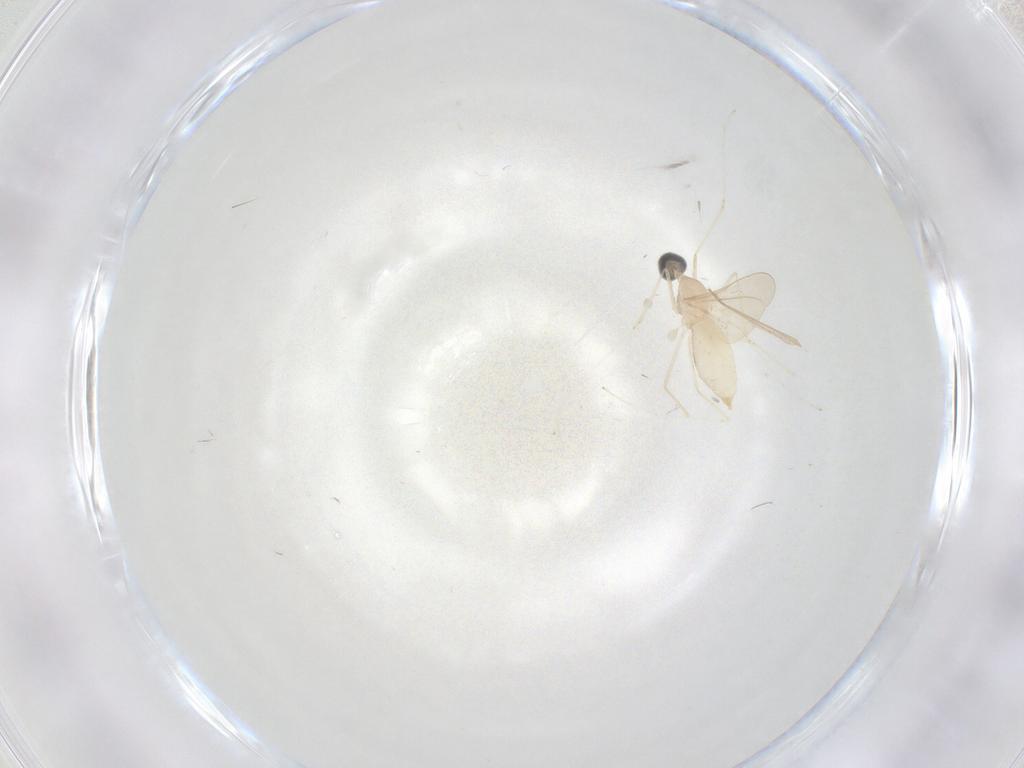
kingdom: Animalia
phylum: Arthropoda
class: Insecta
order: Diptera
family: Cecidomyiidae
